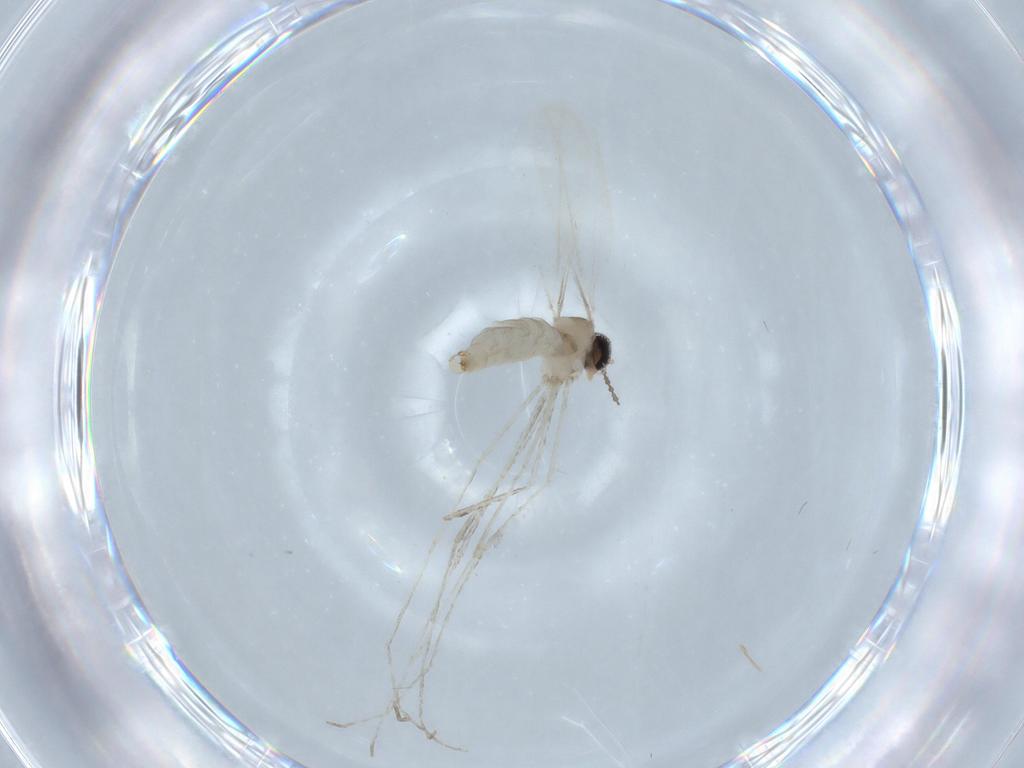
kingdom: Animalia
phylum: Arthropoda
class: Insecta
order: Diptera
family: Cecidomyiidae
